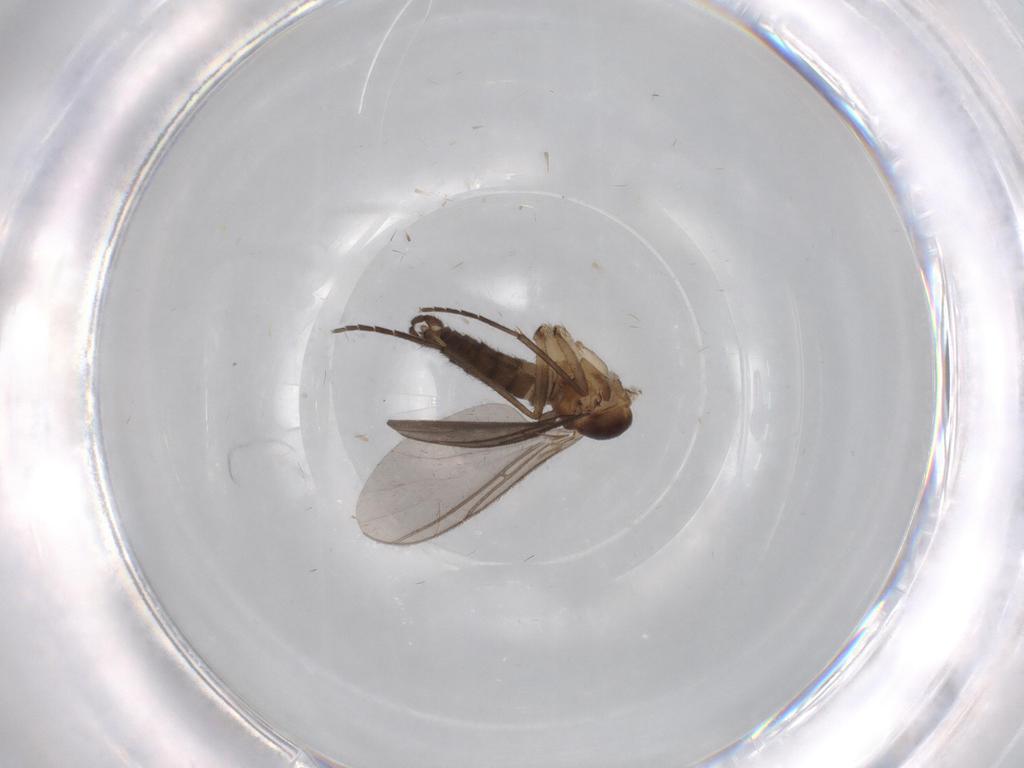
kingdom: Animalia
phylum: Arthropoda
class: Insecta
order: Diptera
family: Sciaridae
